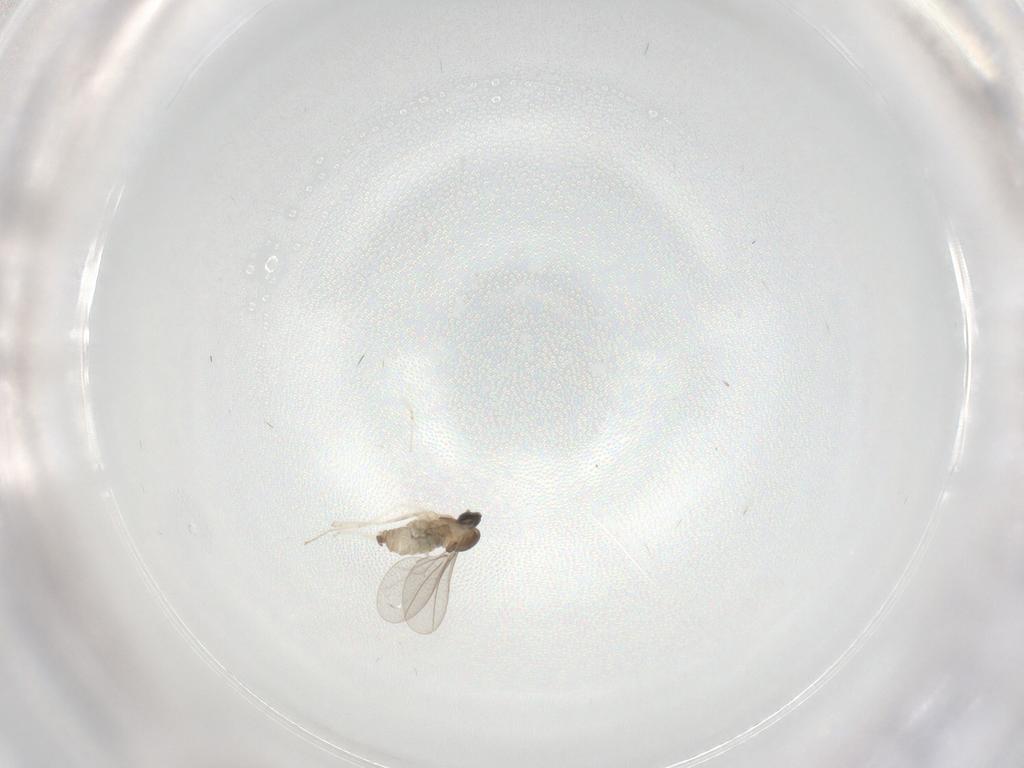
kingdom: Animalia
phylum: Arthropoda
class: Insecta
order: Diptera
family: Cecidomyiidae
